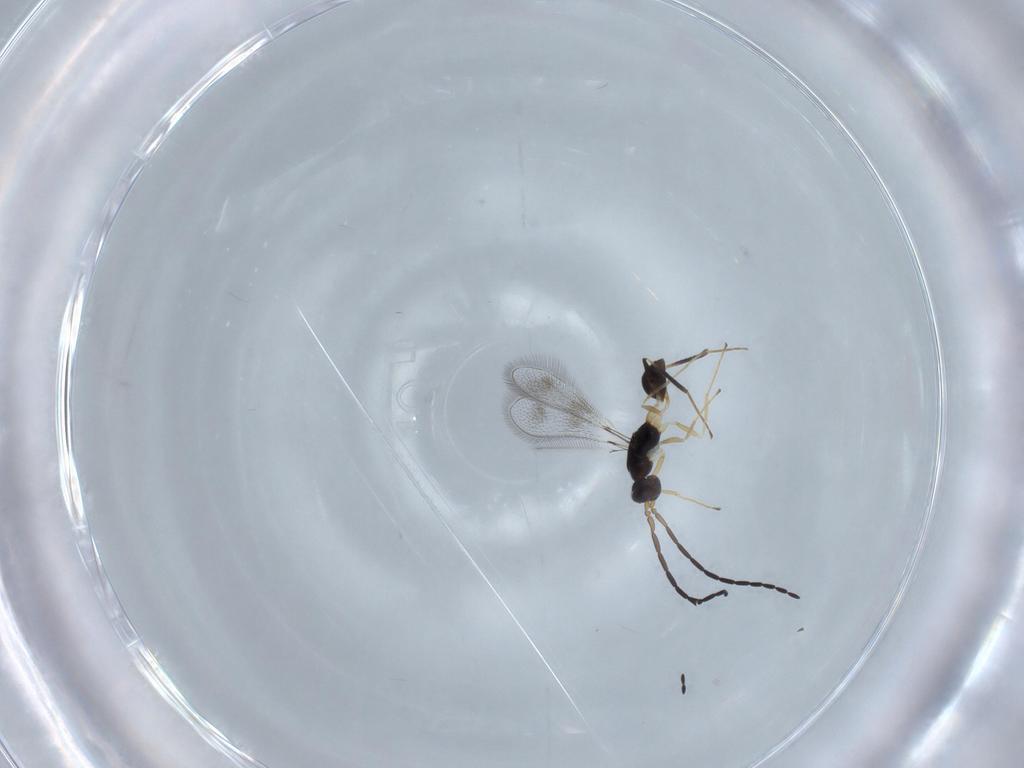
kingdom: Animalia
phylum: Arthropoda
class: Insecta
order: Hymenoptera
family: Mymaridae
